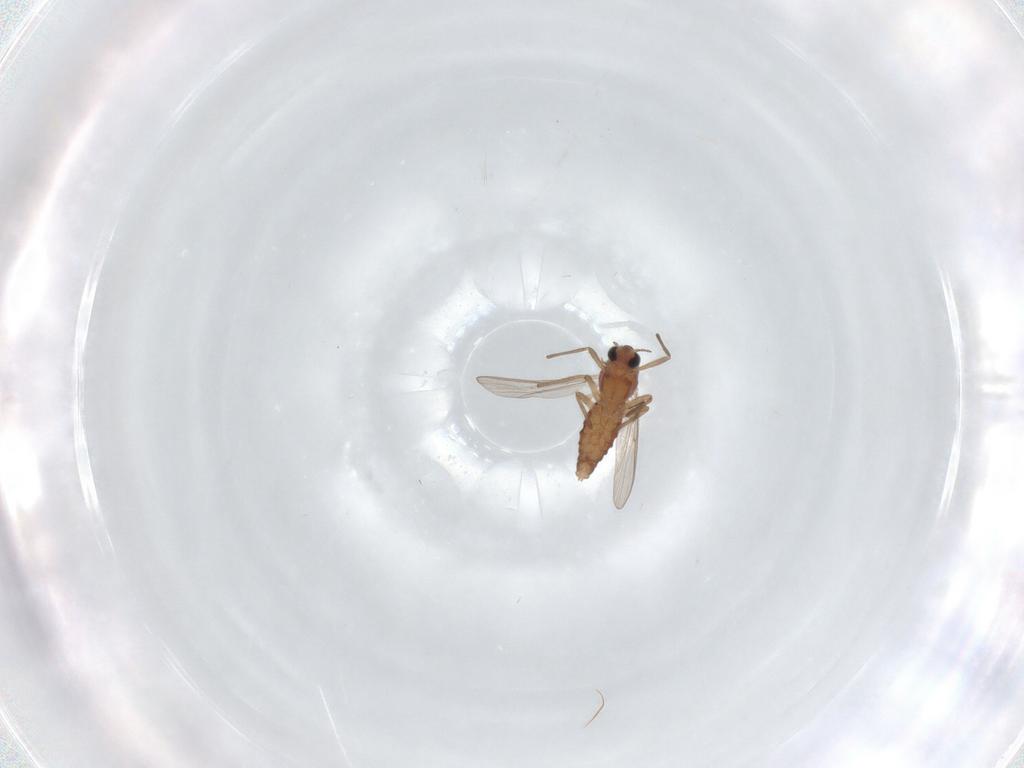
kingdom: Animalia
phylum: Arthropoda
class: Insecta
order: Diptera
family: Chironomidae
